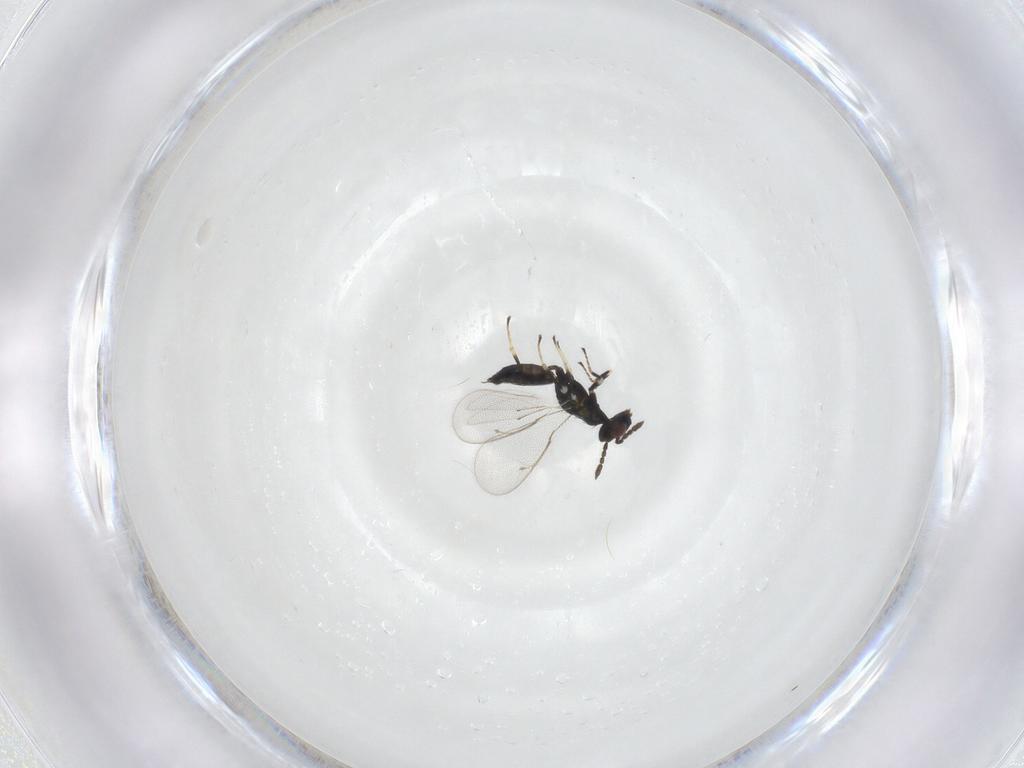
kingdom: Animalia
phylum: Arthropoda
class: Insecta
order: Hymenoptera
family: Eulophidae
